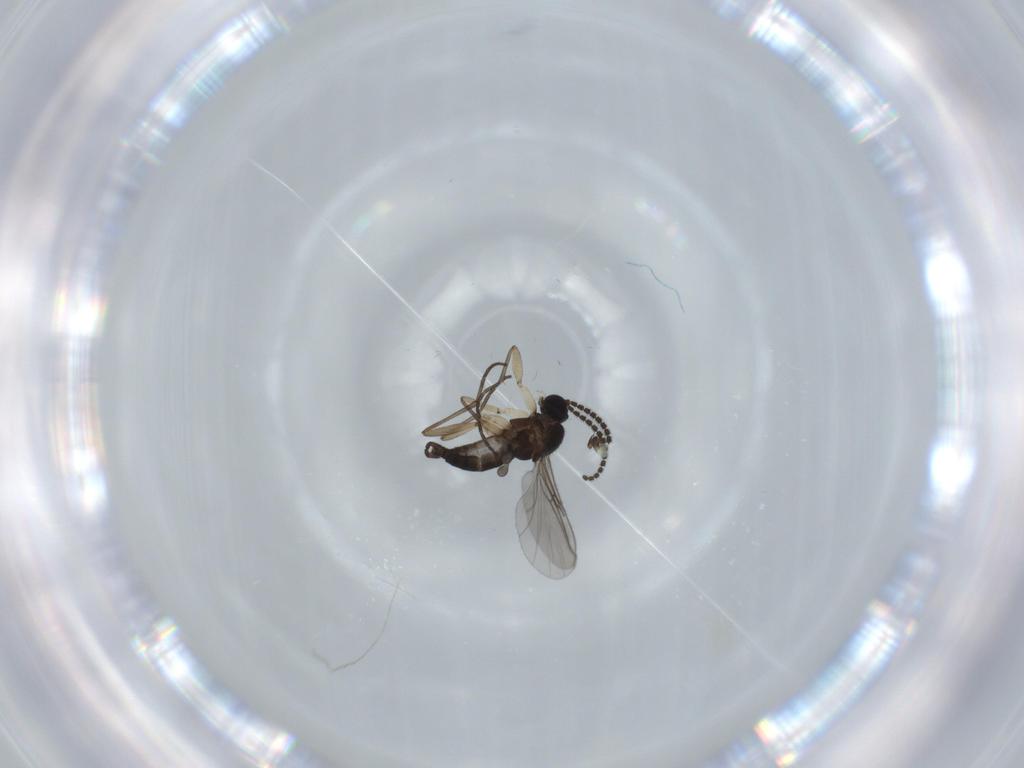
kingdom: Animalia
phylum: Arthropoda
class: Insecta
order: Diptera
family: Sciaridae
